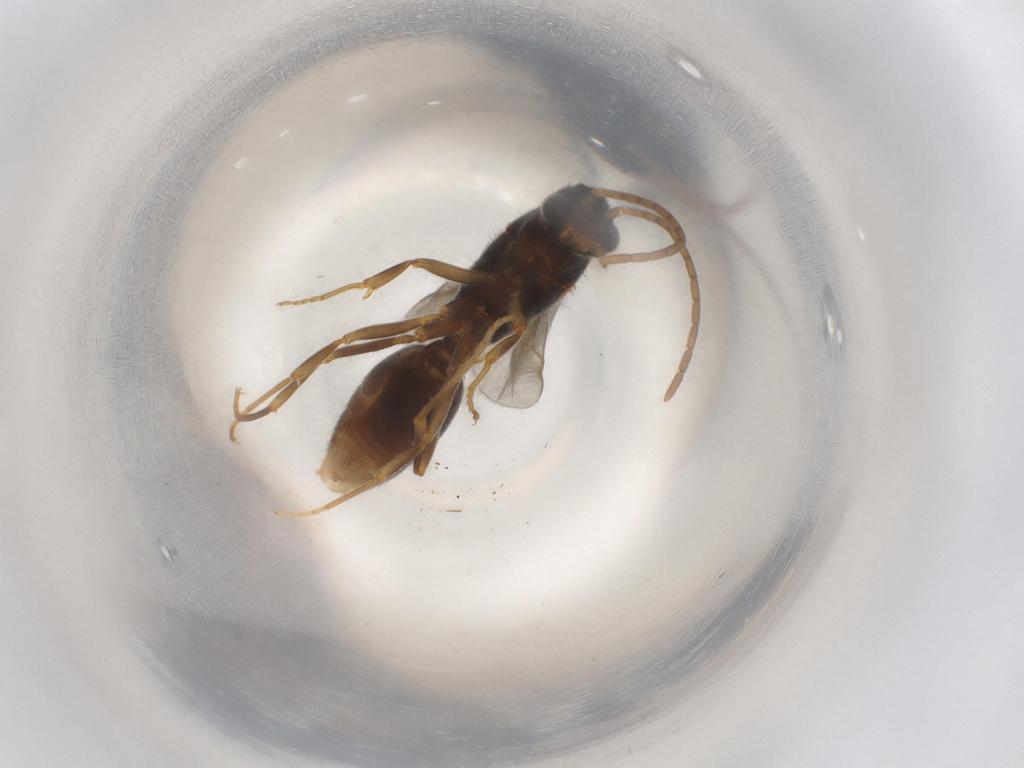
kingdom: Animalia
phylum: Arthropoda
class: Insecta
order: Hymenoptera
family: Formicidae
